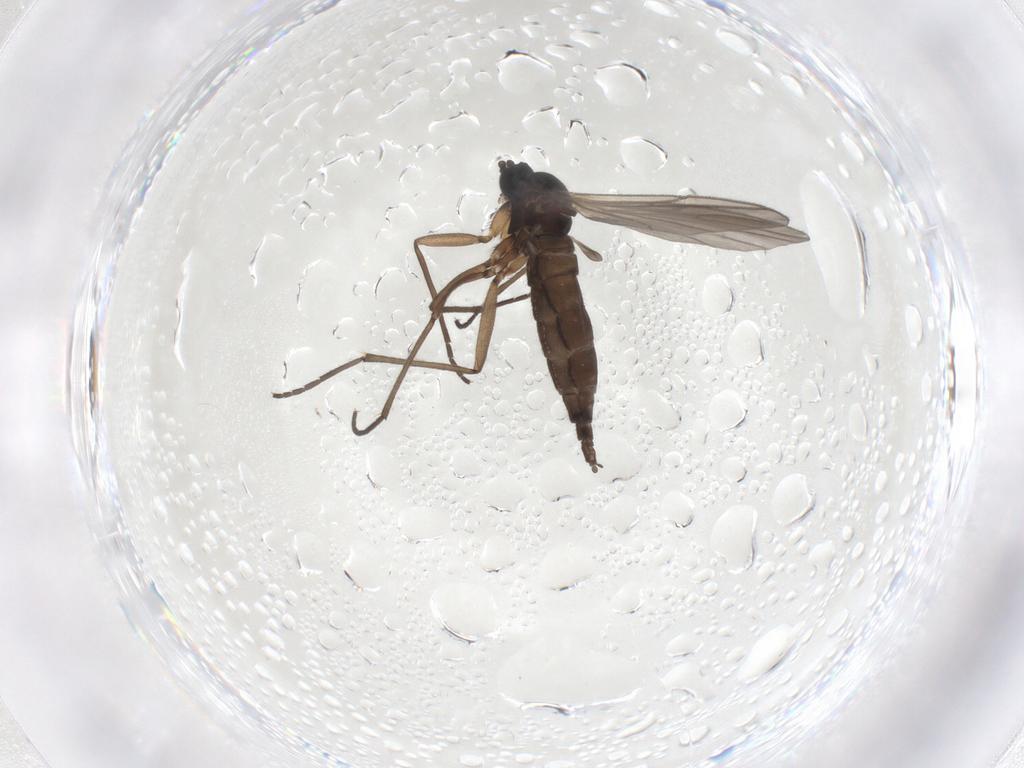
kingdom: Animalia
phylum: Arthropoda
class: Insecta
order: Diptera
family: Sciaridae
